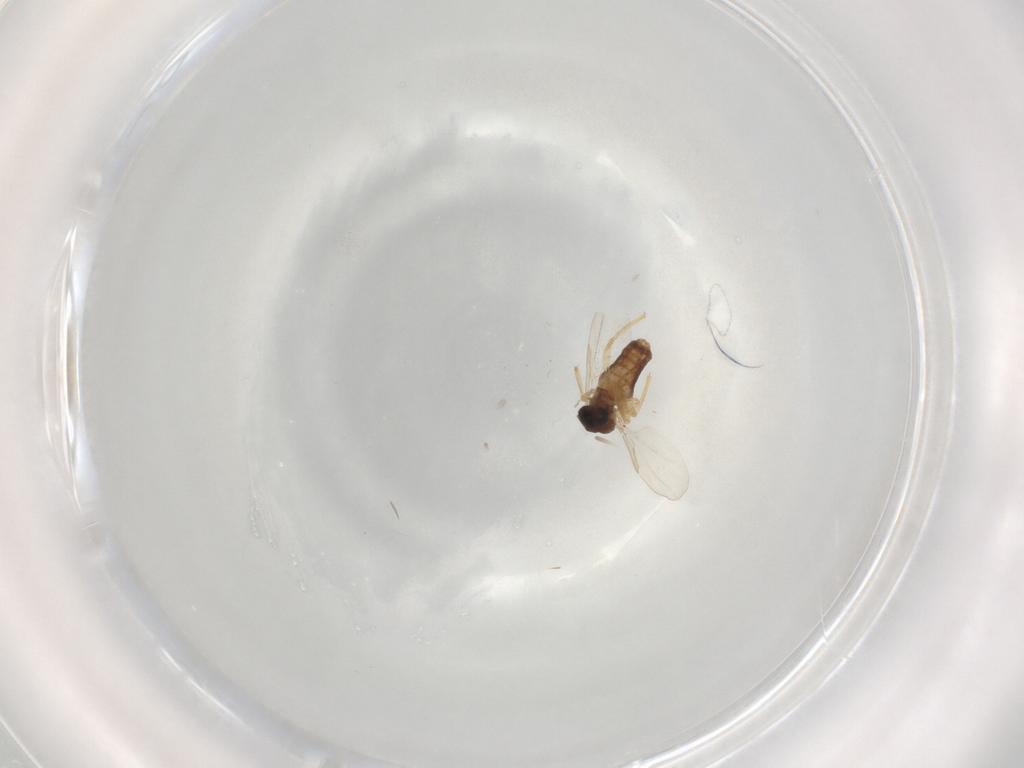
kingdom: Animalia
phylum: Arthropoda
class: Insecta
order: Diptera
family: Ceratopogonidae
